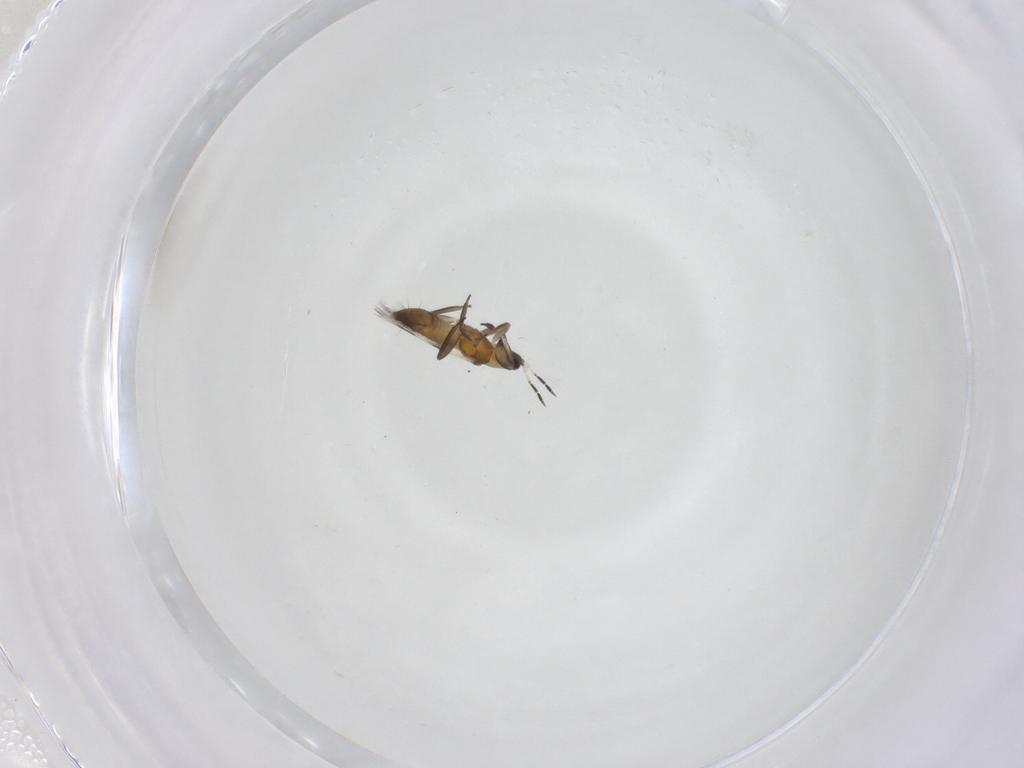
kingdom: Animalia
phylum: Arthropoda
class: Insecta
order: Thysanoptera
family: Aeolothripidae
